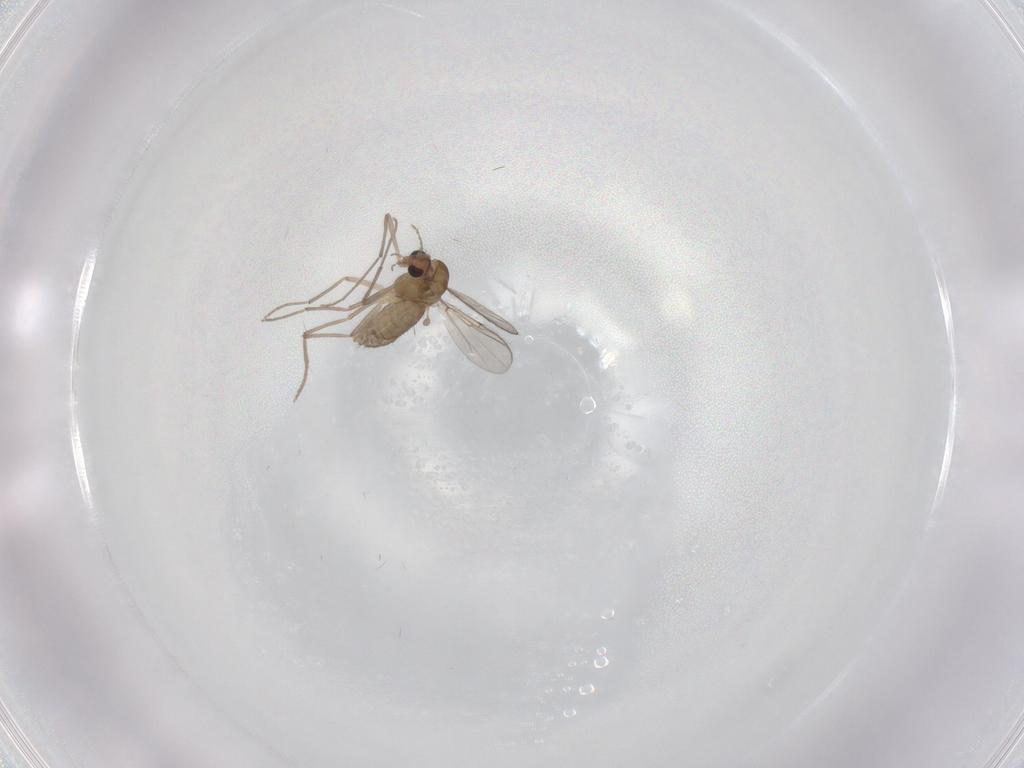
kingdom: Animalia
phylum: Arthropoda
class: Insecta
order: Diptera
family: Chironomidae
